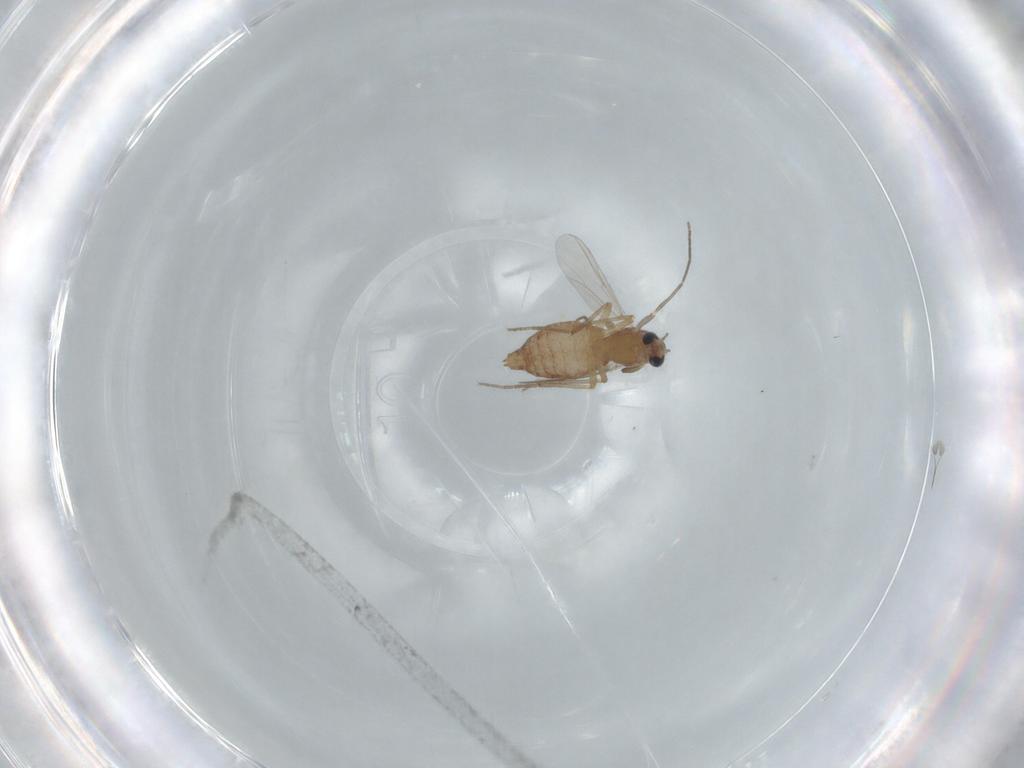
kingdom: Animalia
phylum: Arthropoda
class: Insecta
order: Diptera
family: Chironomidae
